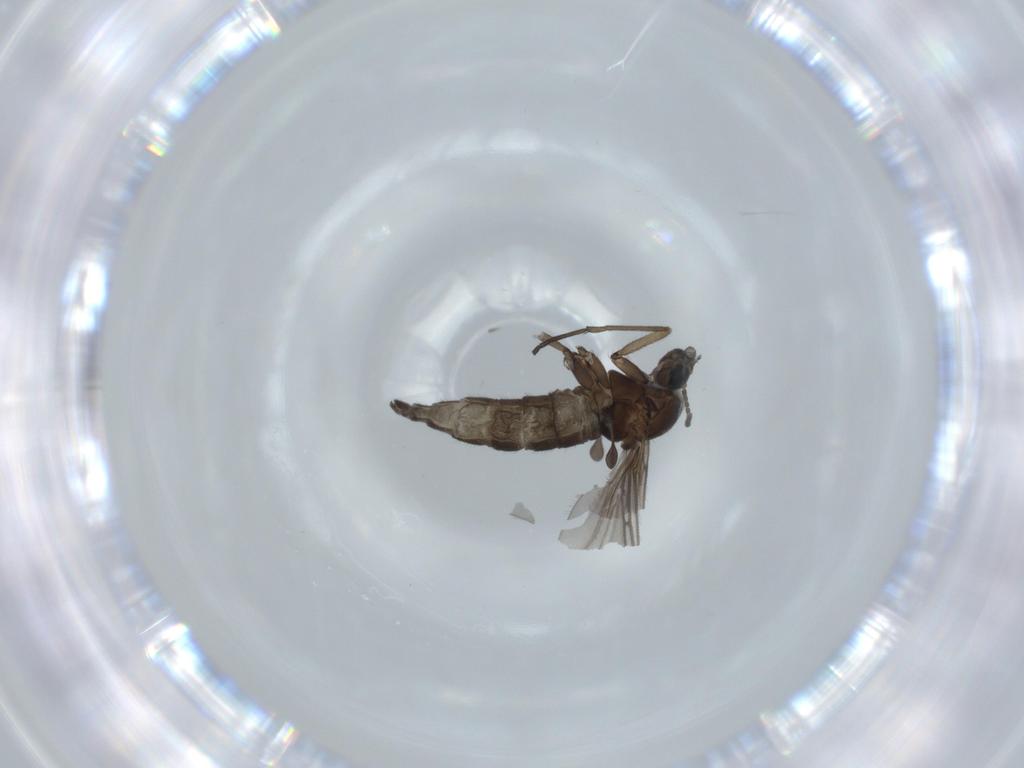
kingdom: Animalia
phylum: Arthropoda
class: Insecta
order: Diptera
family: Sciaridae
